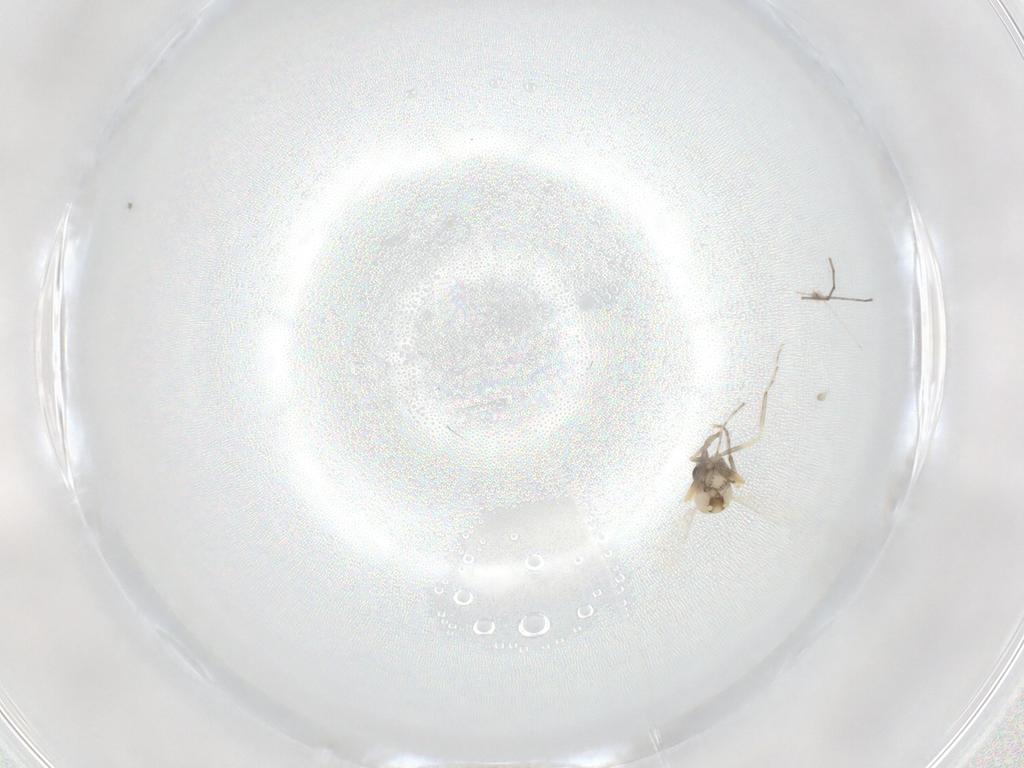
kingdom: Animalia
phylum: Arthropoda
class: Insecta
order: Diptera
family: Cecidomyiidae
